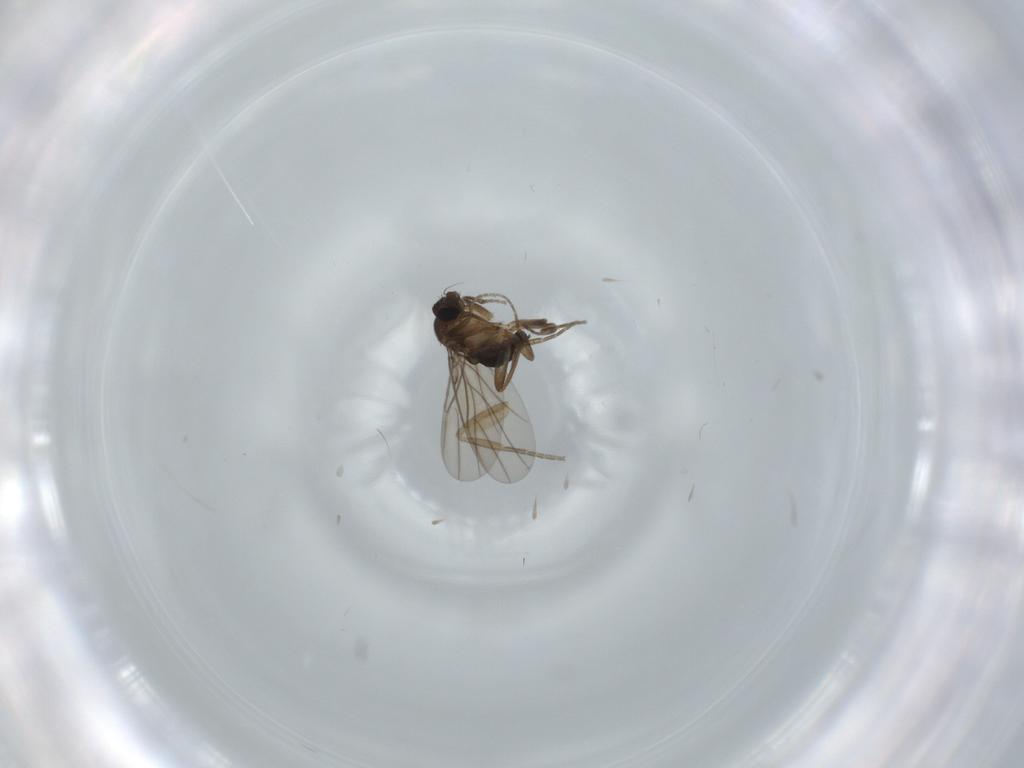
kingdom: Animalia
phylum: Arthropoda
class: Insecta
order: Diptera
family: Phoridae
